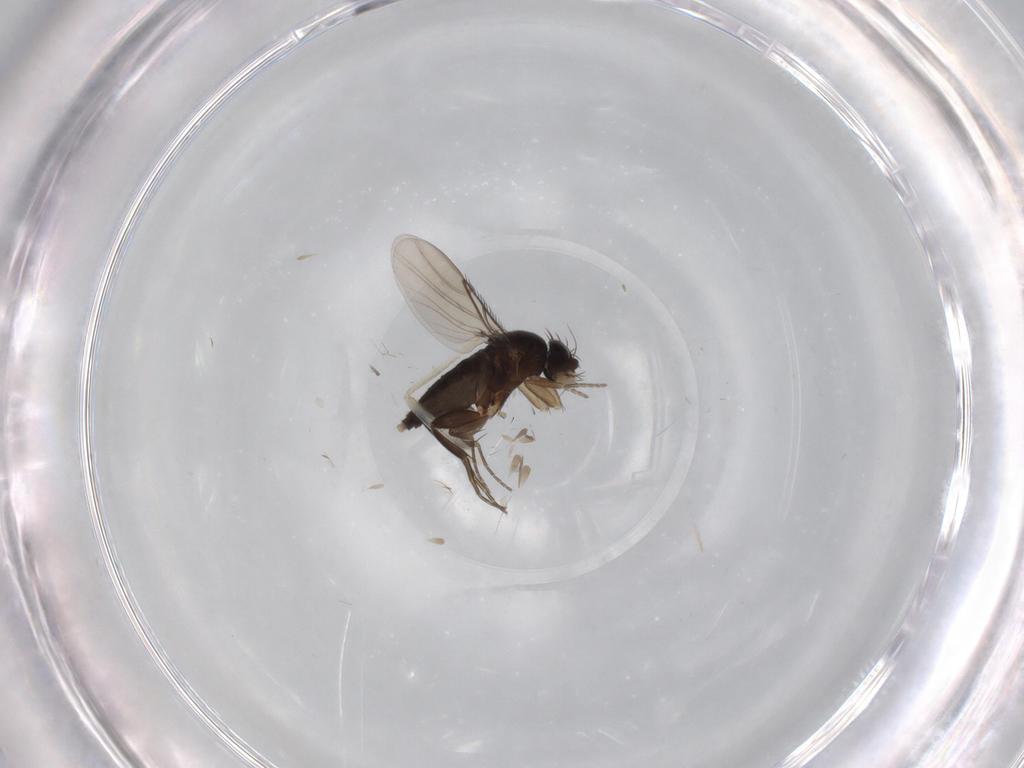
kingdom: Animalia
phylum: Arthropoda
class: Insecta
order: Diptera
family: Phoridae
